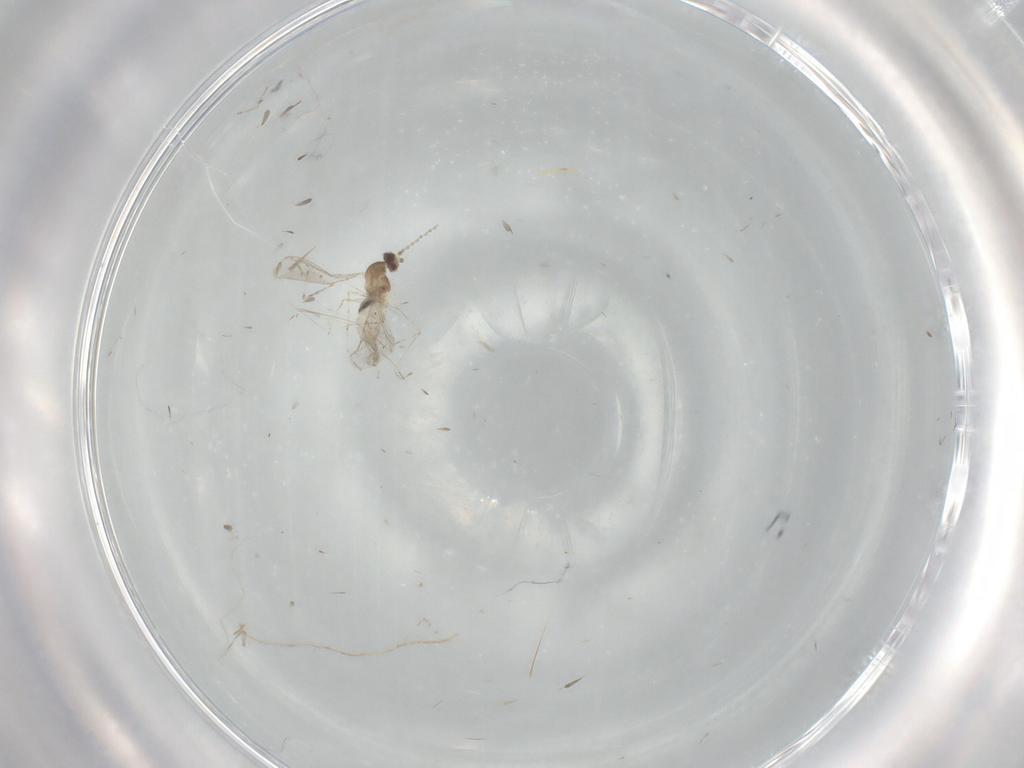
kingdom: Animalia
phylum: Arthropoda
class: Insecta
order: Diptera
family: Cecidomyiidae
